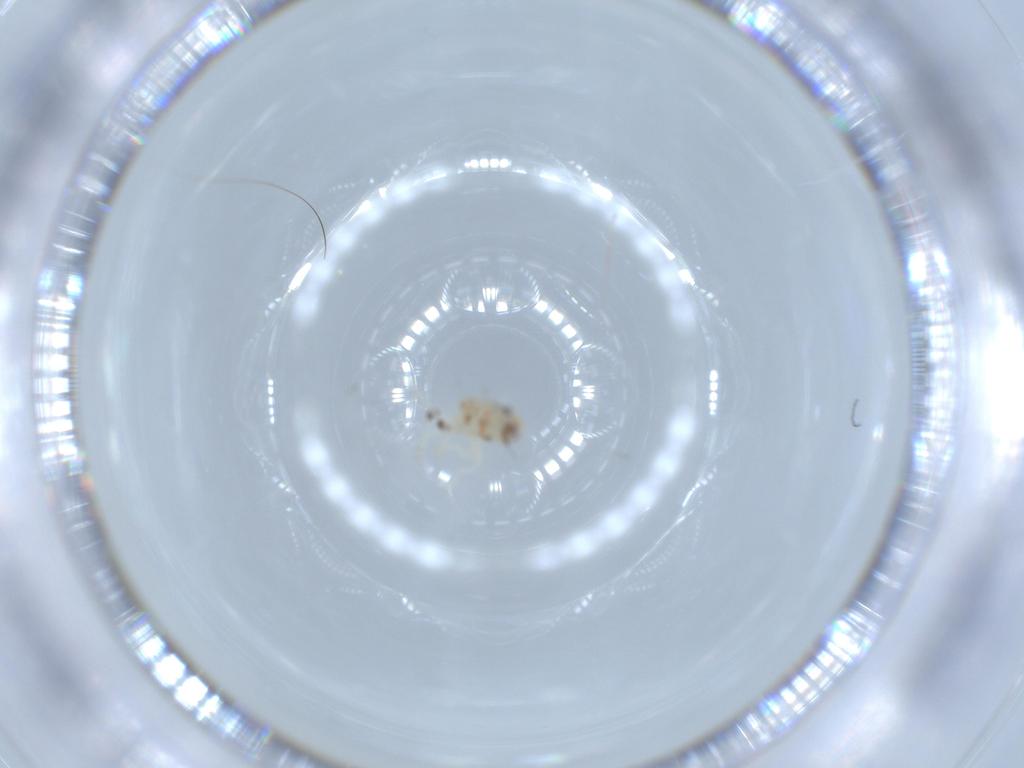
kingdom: Animalia
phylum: Arthropoda
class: Insecta
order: Hemiptera
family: Nogodinidae
